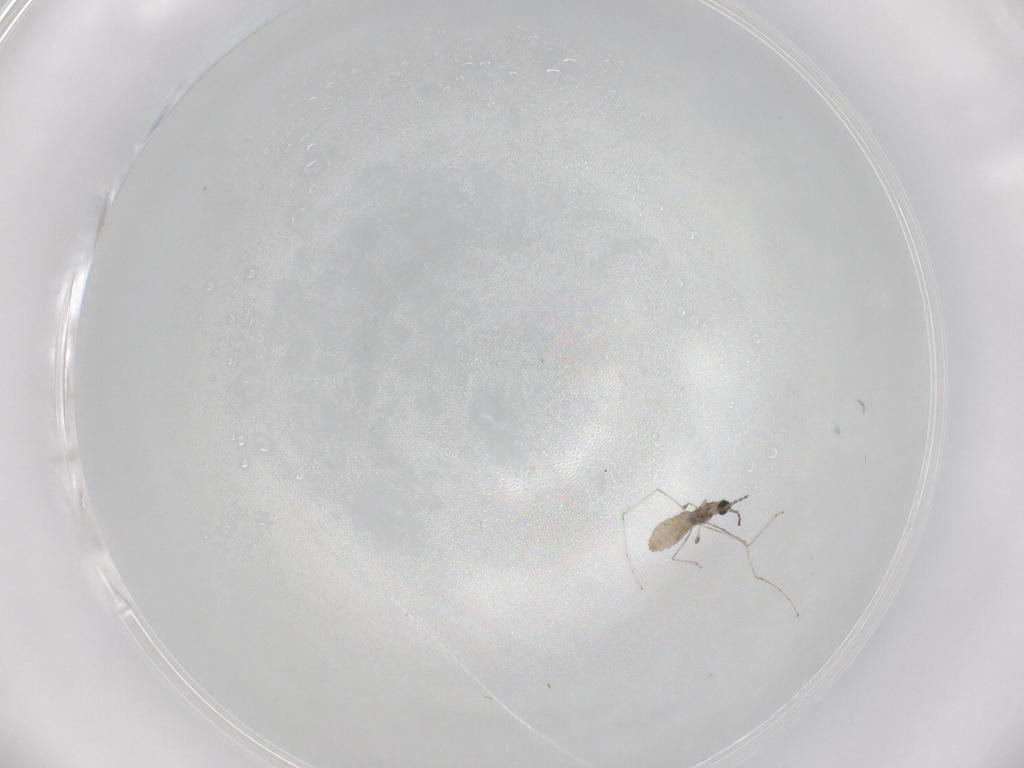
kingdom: Animalia
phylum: Arthropoda
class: Insecta
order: Diptera
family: Cecidomyiidae
